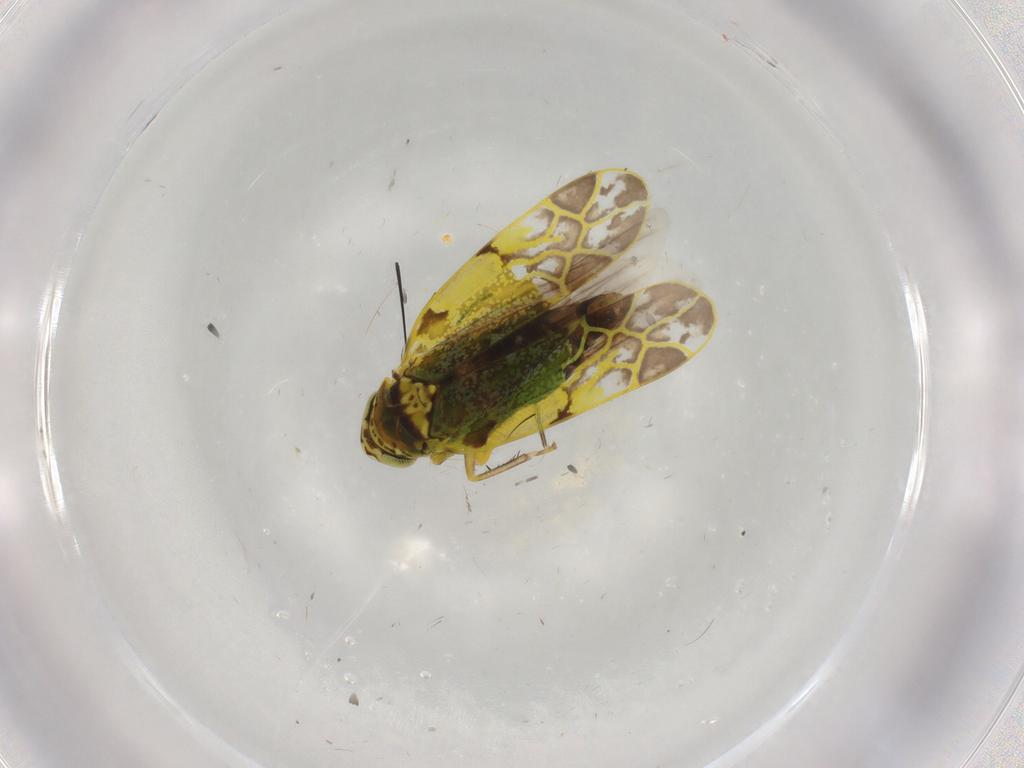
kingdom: Animalia
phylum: Arthropoda
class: Insecta
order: Hemiptera
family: Cicadellidae
